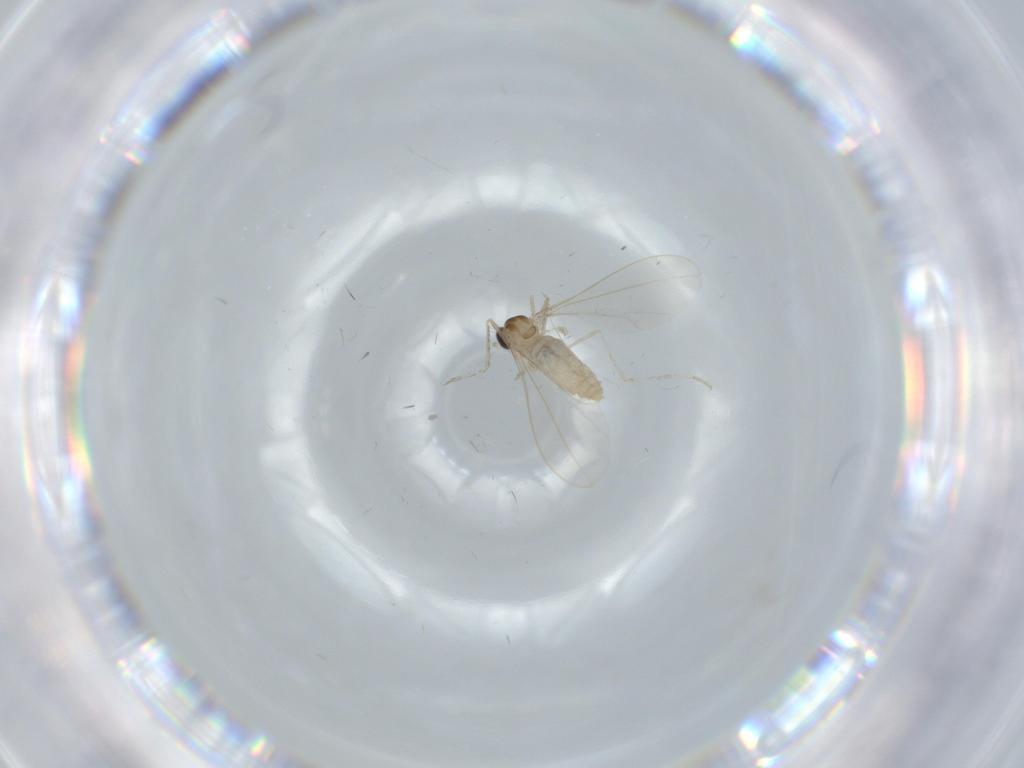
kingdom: Animalia
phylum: Arthropoda
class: Insecta
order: Diptera
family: Cecidomyiidae
